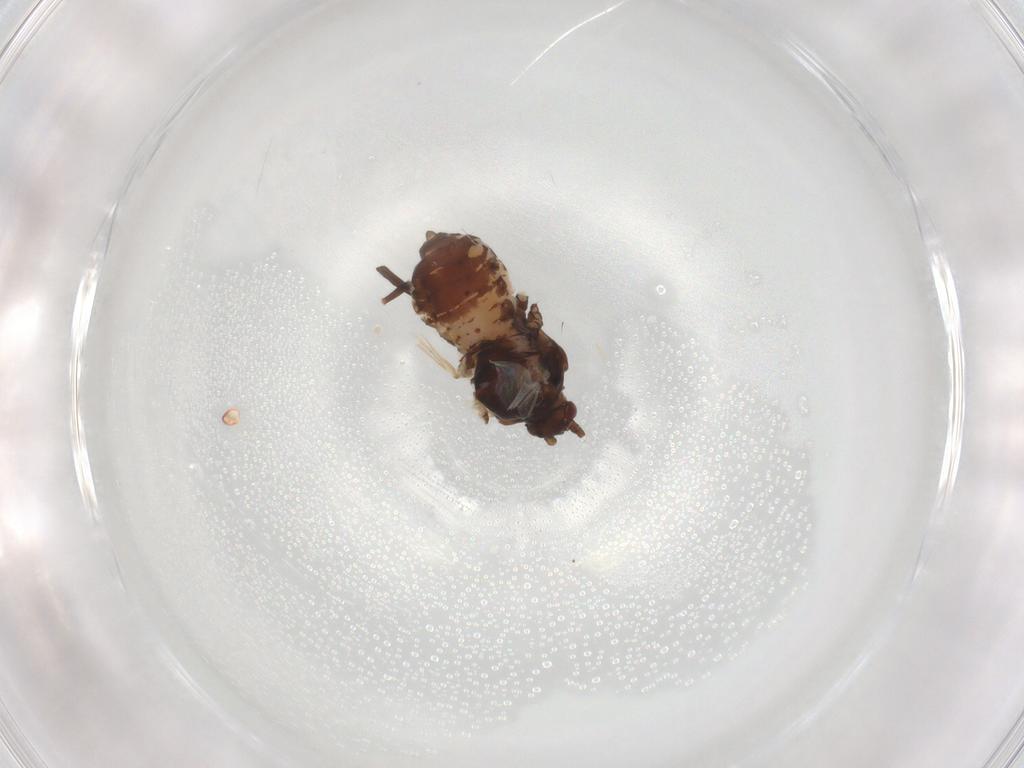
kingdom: Animalia
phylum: Arthropoda
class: Insecta
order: Hemiptera
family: Aphididae
